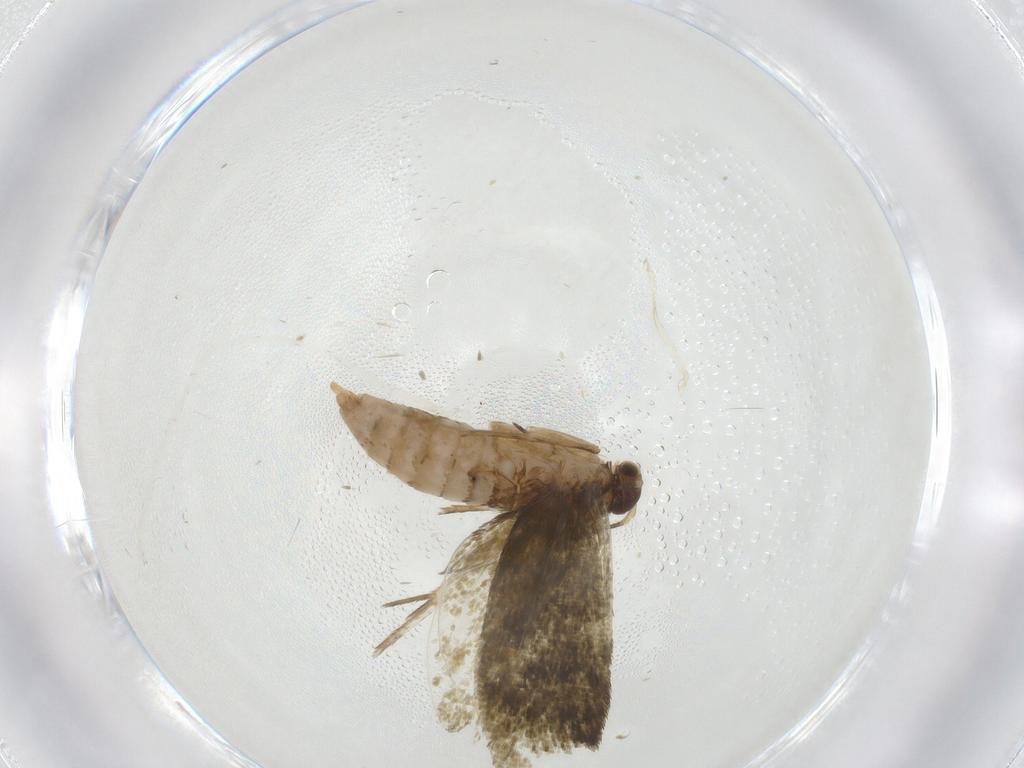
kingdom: Animalia
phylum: Arthropoda
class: Insecta
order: Lepidoptera
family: Tineidae
